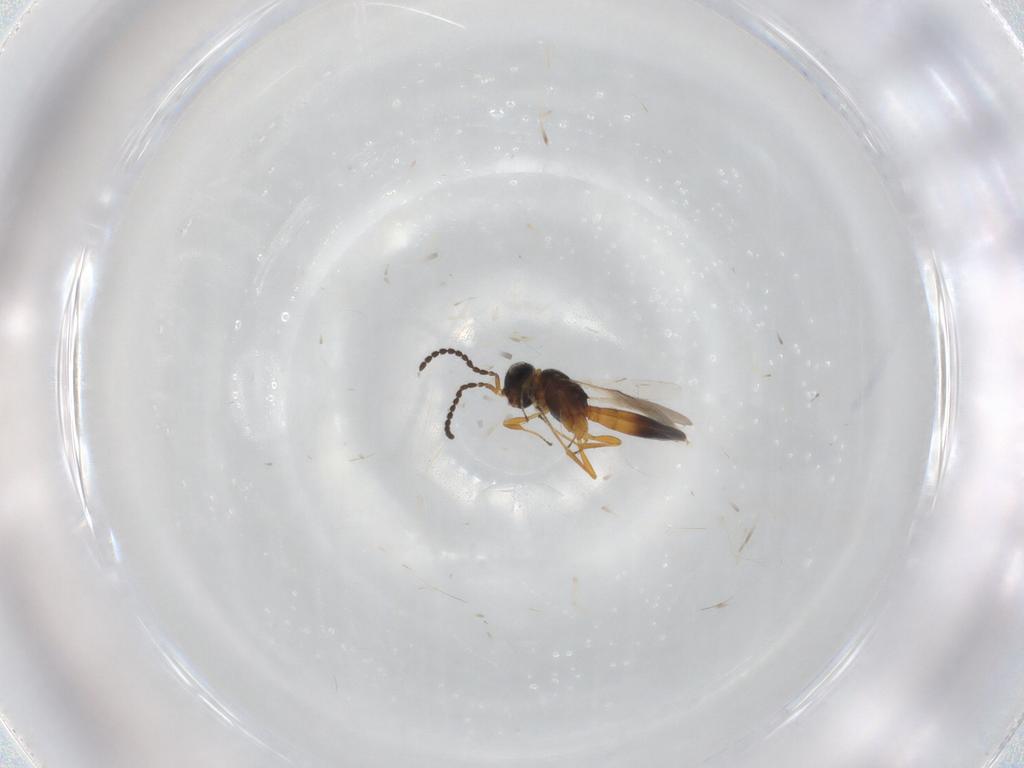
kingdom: Animalia
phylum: Arthropoda
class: Insecta
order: Hymenoptera
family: Scelionidae
